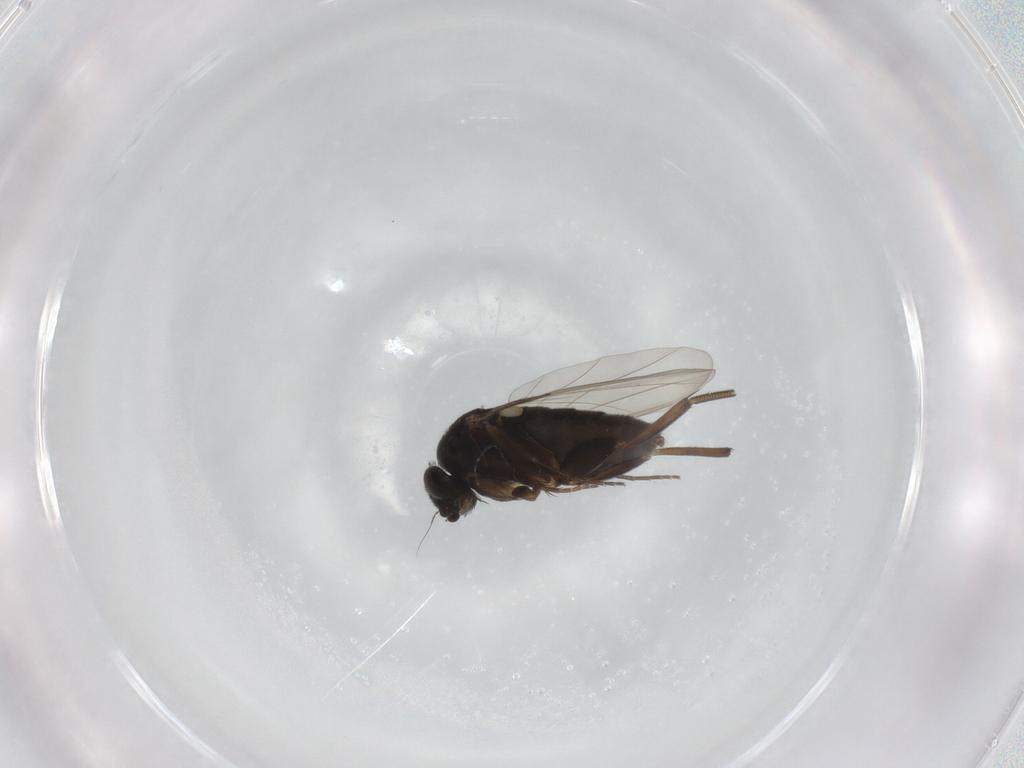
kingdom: Animalia
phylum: Arthropoda
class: Insecta
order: Diptera
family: Phoridae
